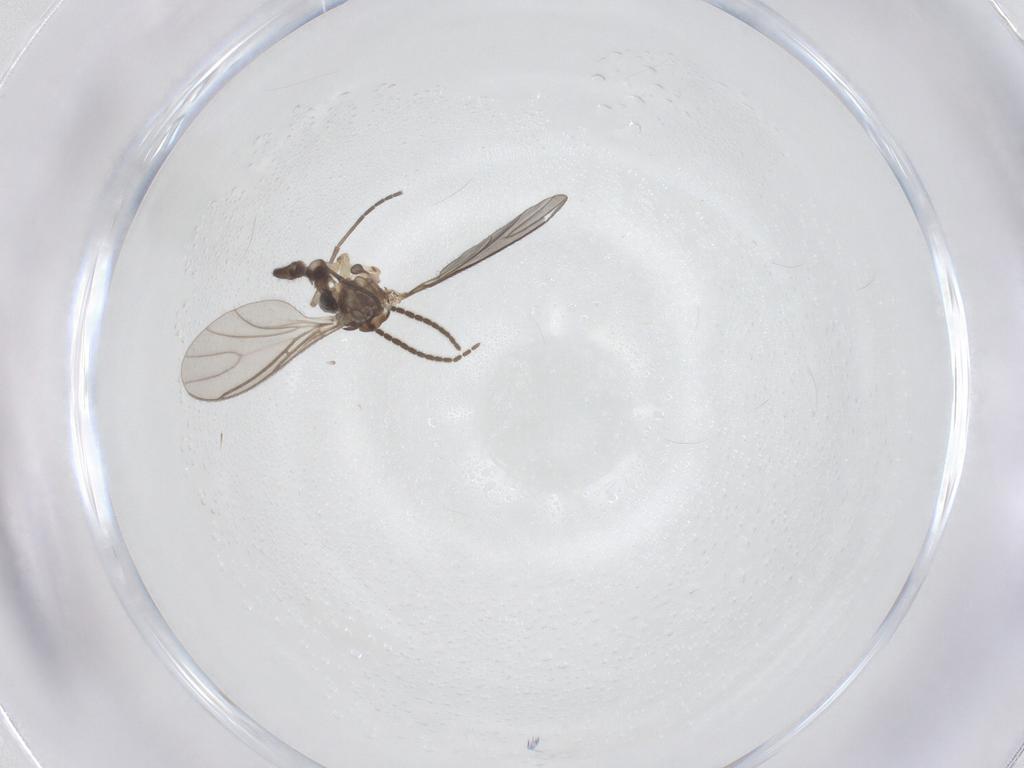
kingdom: Animalia
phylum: Arthropoda
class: Insecta
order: Diptera
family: Sciaridae
